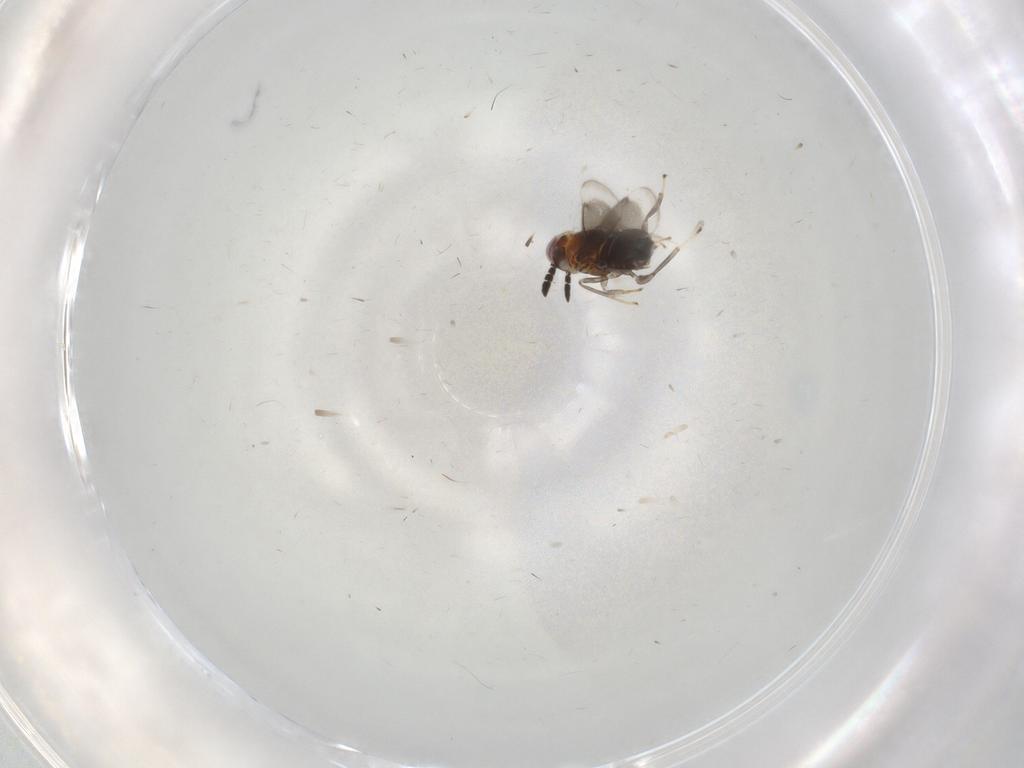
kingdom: Animalia
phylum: Arthropoda
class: Insecta
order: Hymenoptera
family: Aphelinidae
